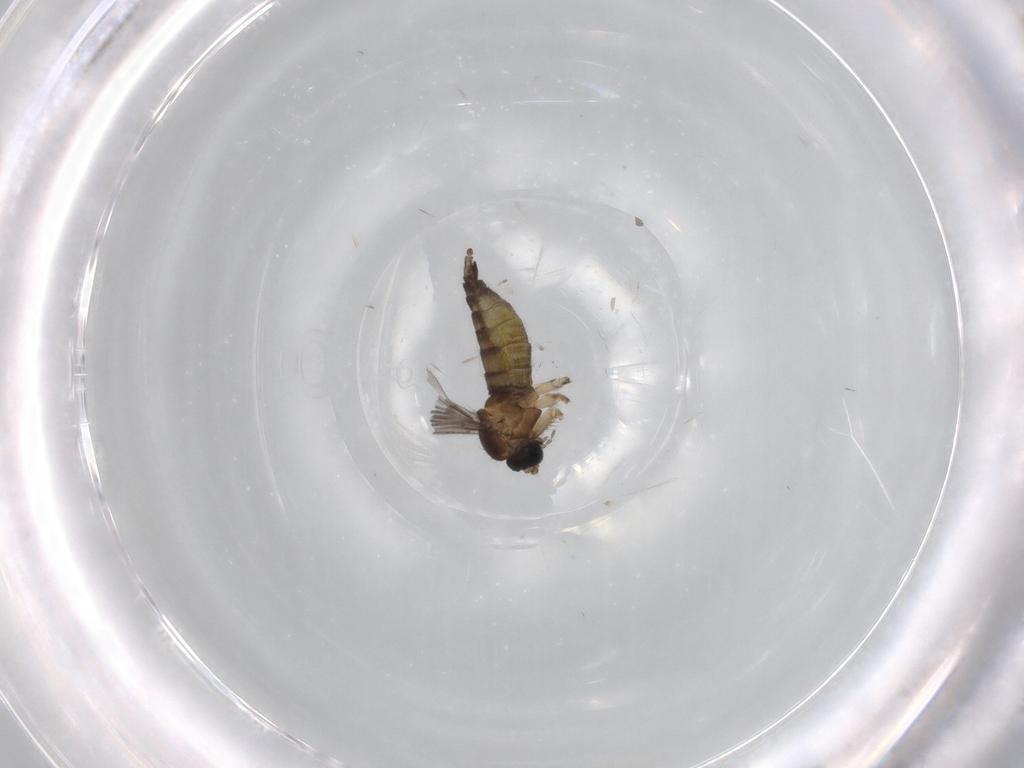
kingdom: Animalia
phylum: Arthropoda
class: Insecta
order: Diptera
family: Sciaridae
